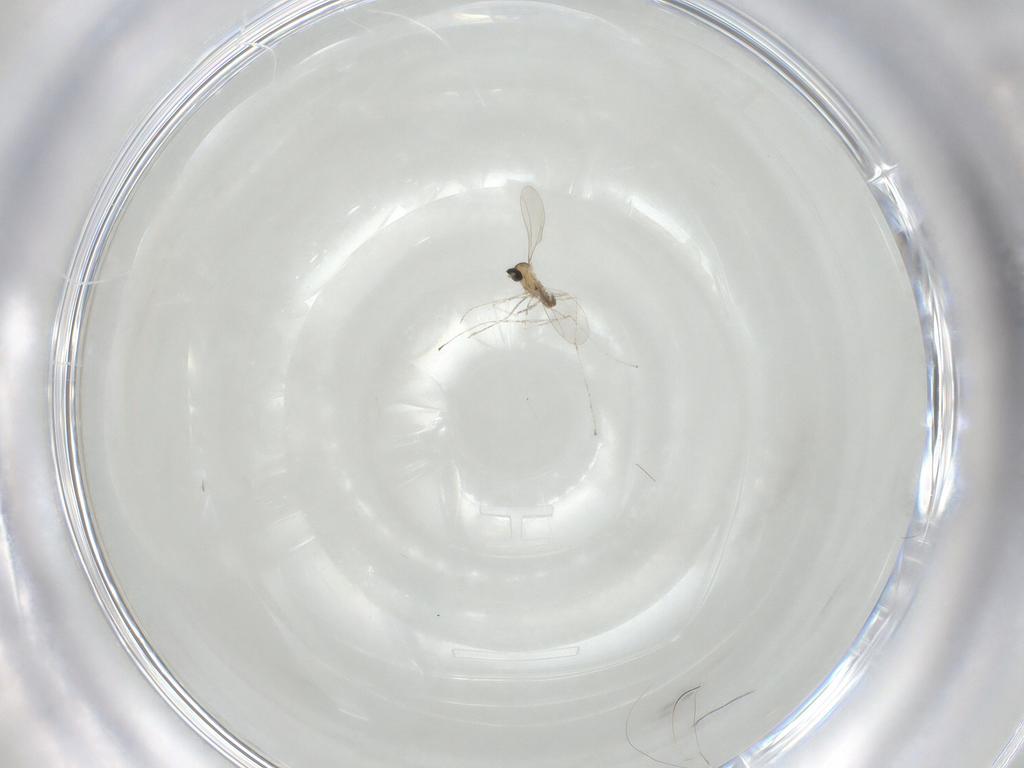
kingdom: Animalia
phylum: Arthropoda
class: Insecta
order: Diptera
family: Cecidomyiidae
